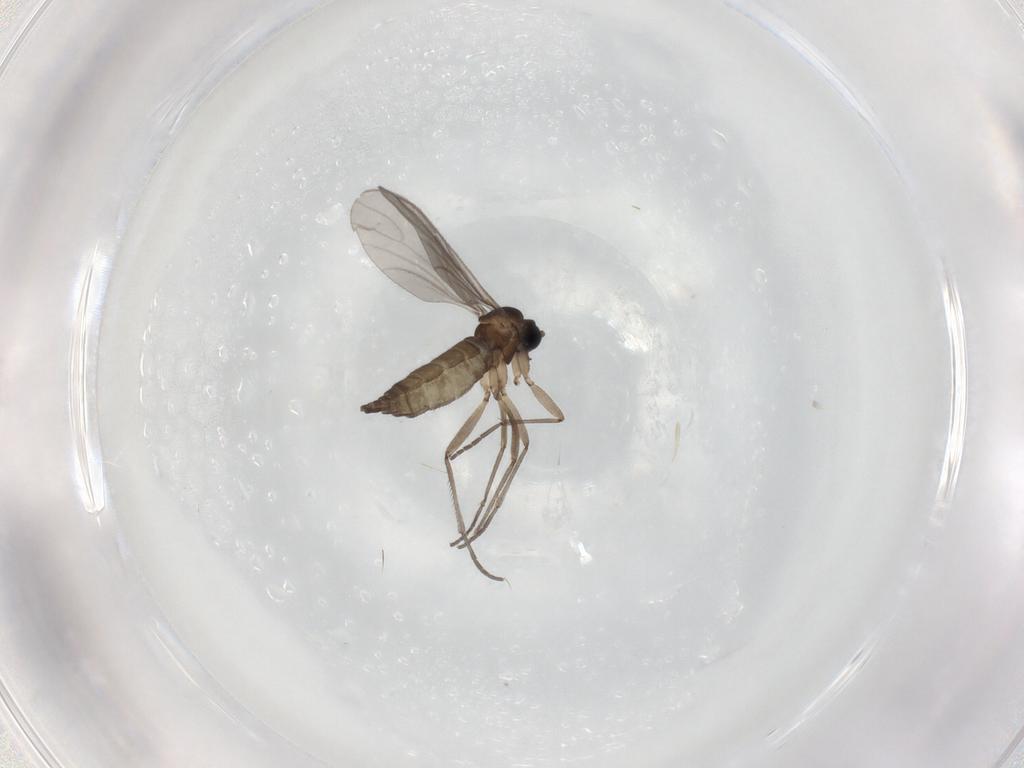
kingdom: Animalia
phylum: Arthropoda
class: Insecta
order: Diptera
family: Sciaridae
